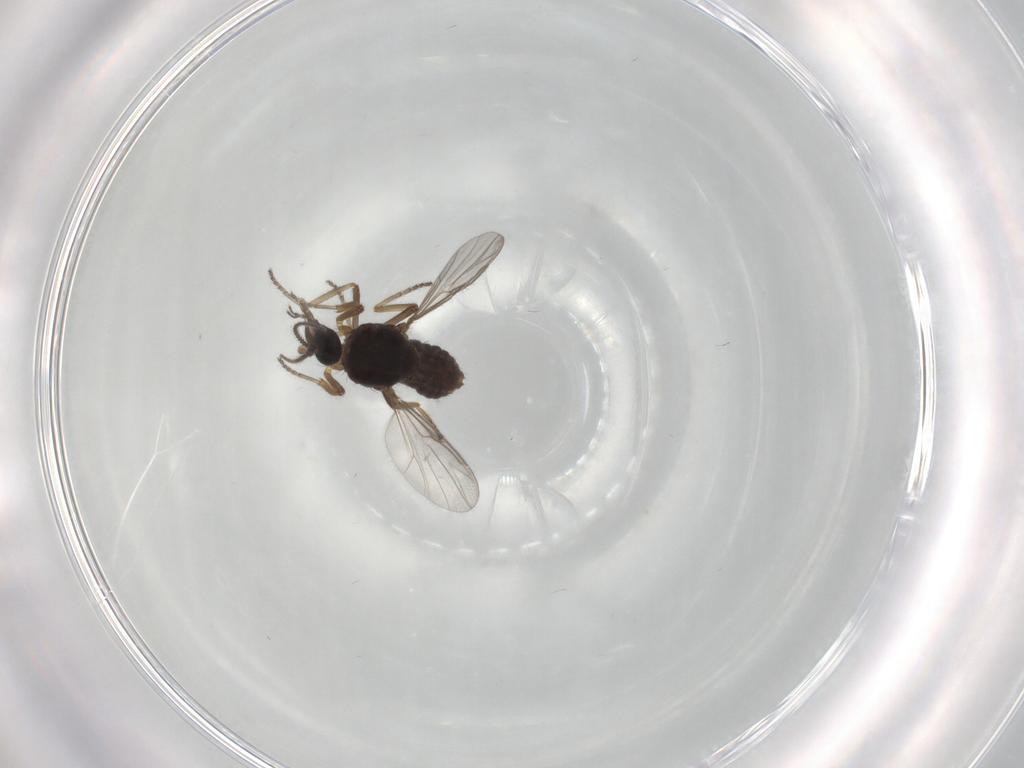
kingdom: Animalia
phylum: Arthropoda
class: Insecta
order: Diptera
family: Ceratopogonidae
